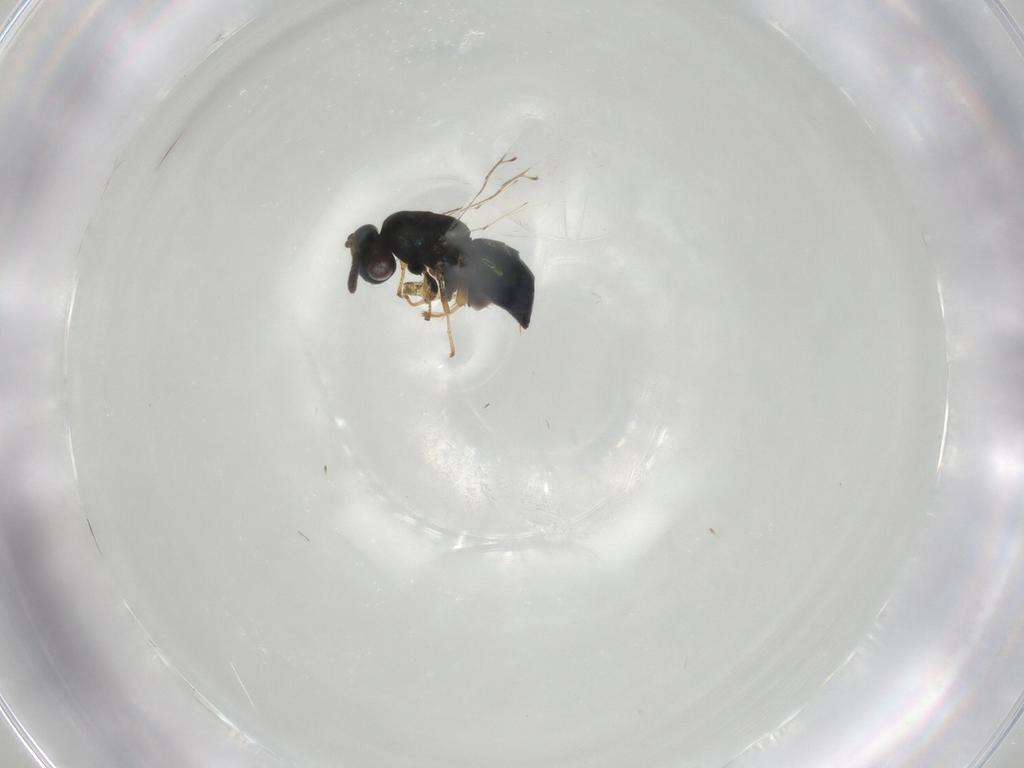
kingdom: Animalia
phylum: Arthropoda
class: Insecta
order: Hymenoptera
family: Pteromalidae
